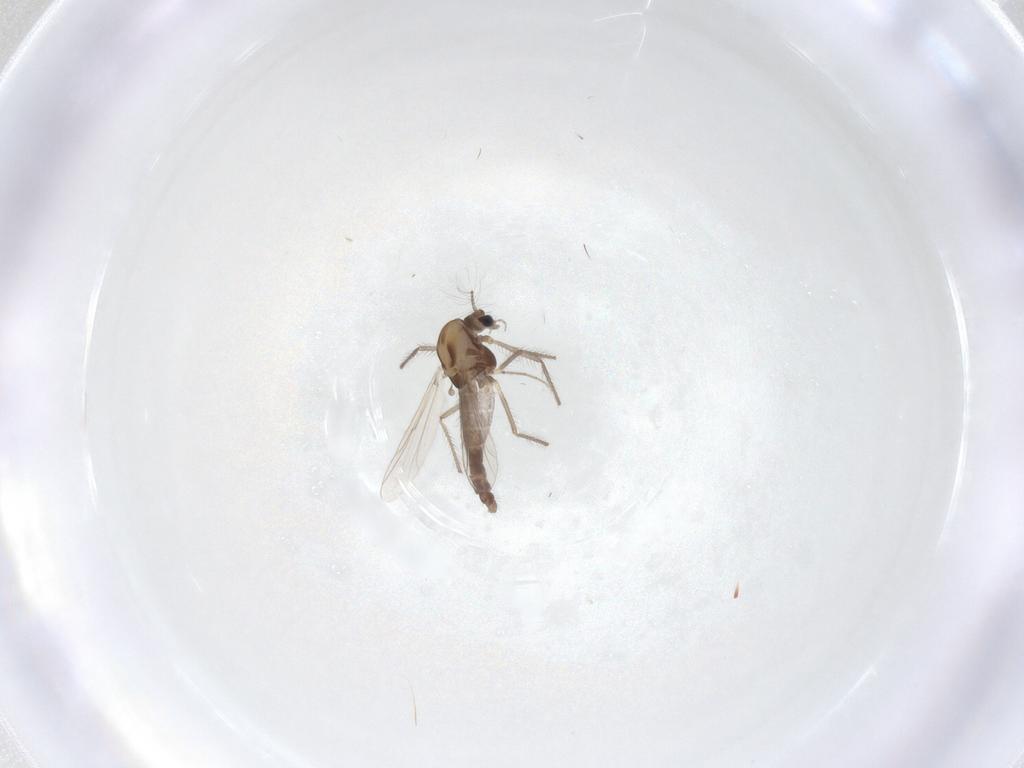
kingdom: Animalia
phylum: Arthropoda
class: Insecta
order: Diptera
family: Chironomidae
